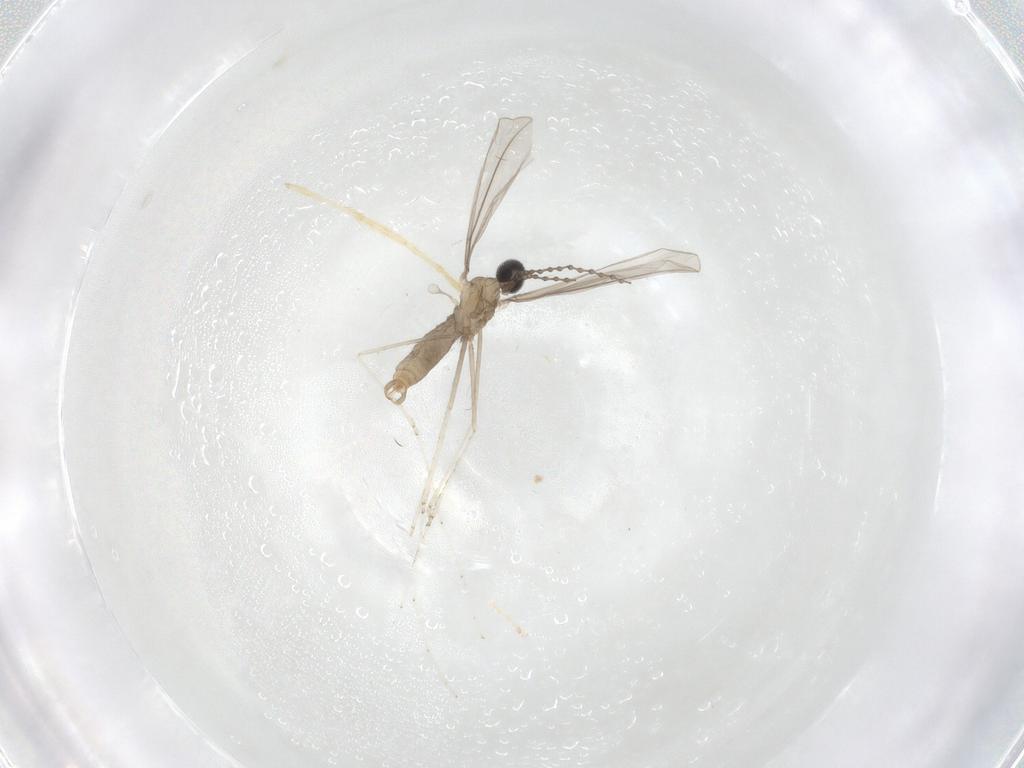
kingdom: Animalia
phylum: Arthropoda
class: Insecta
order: Diptera
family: Cecidomyiidae
